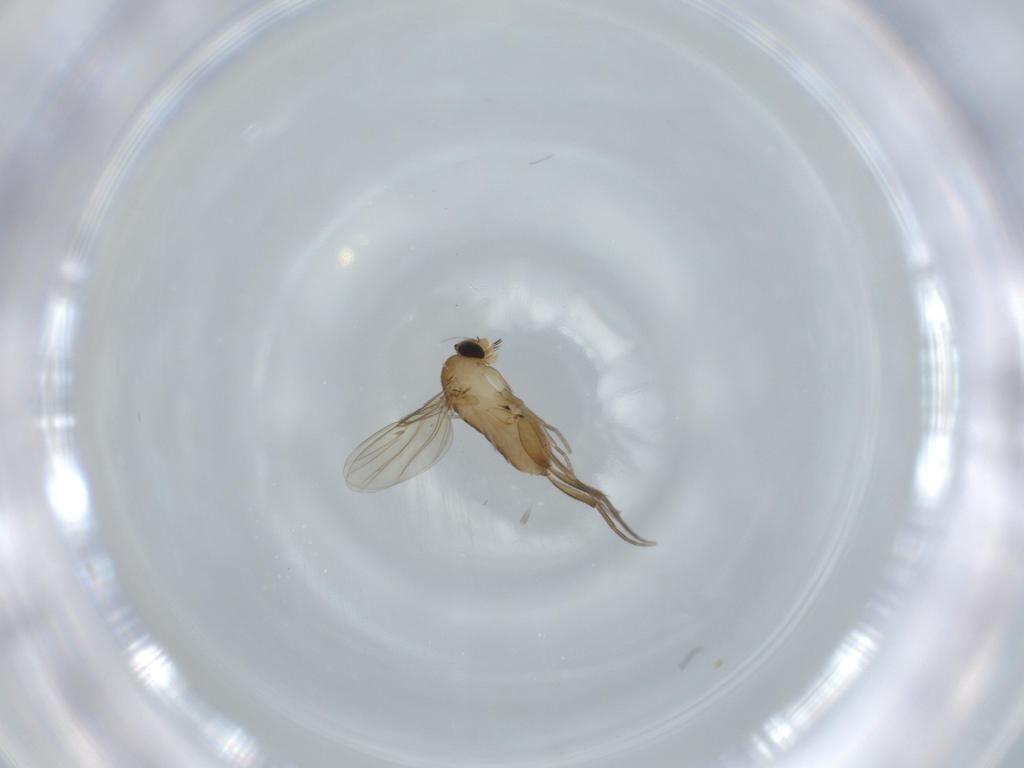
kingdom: Animalia
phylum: Arthropoda
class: Insecta
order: Diptera
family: Phoridae
